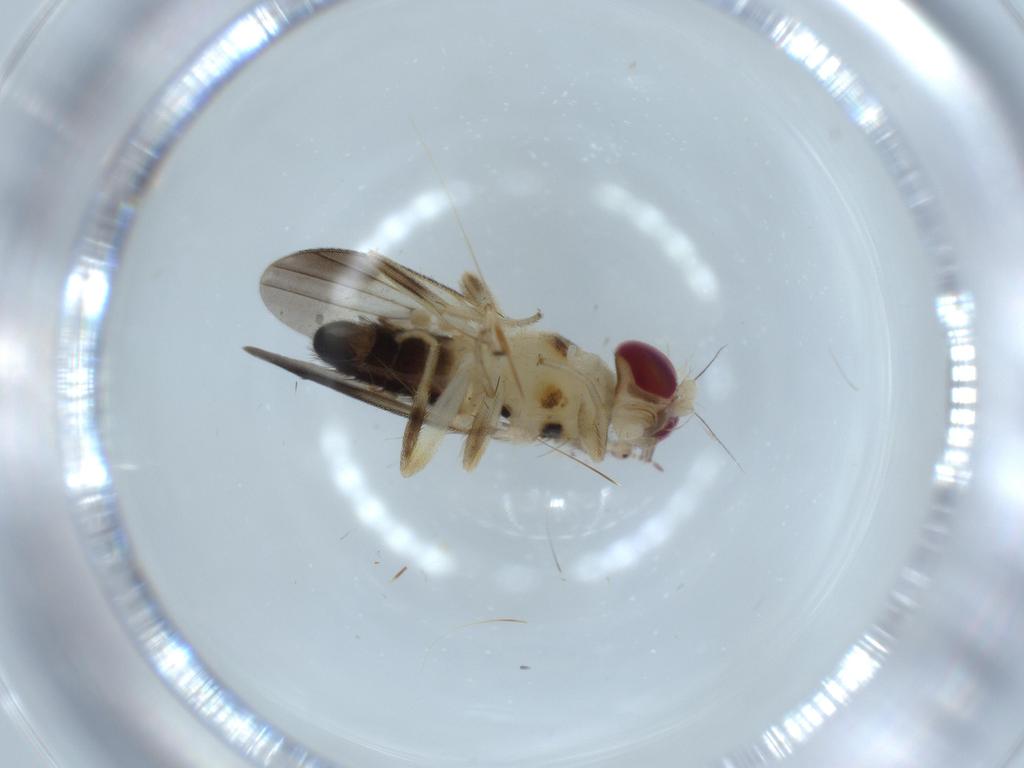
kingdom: Animalia
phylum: Arthropoda
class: Insecta
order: Diptera
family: Clusiidae
